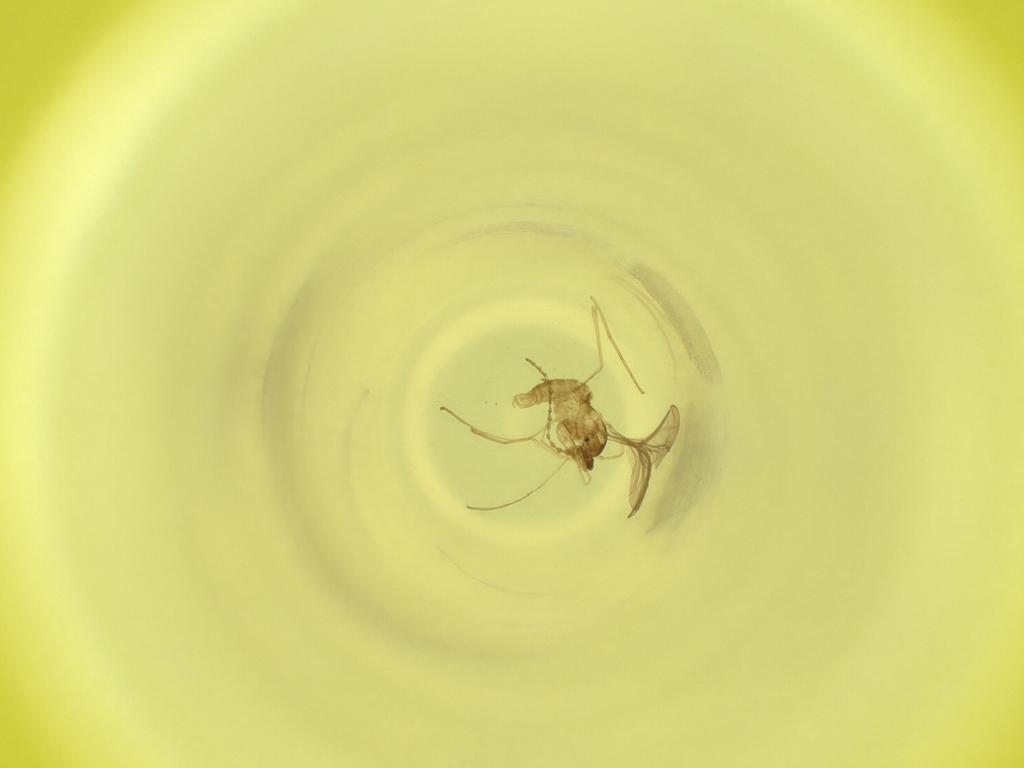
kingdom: Animalia
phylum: Arthropoda
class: Insecta
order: Diptera
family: Cecidomyiidae
